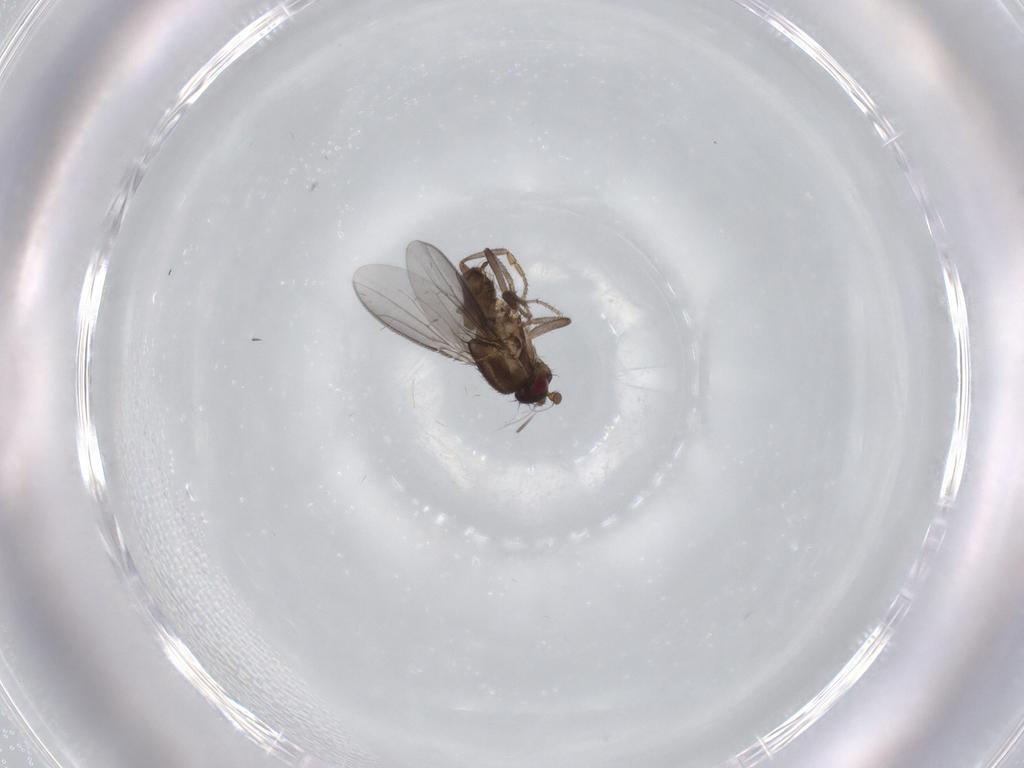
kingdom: Animalia
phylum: Arthropoda
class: Insecta
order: Diptera
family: Sphaeroceridae
